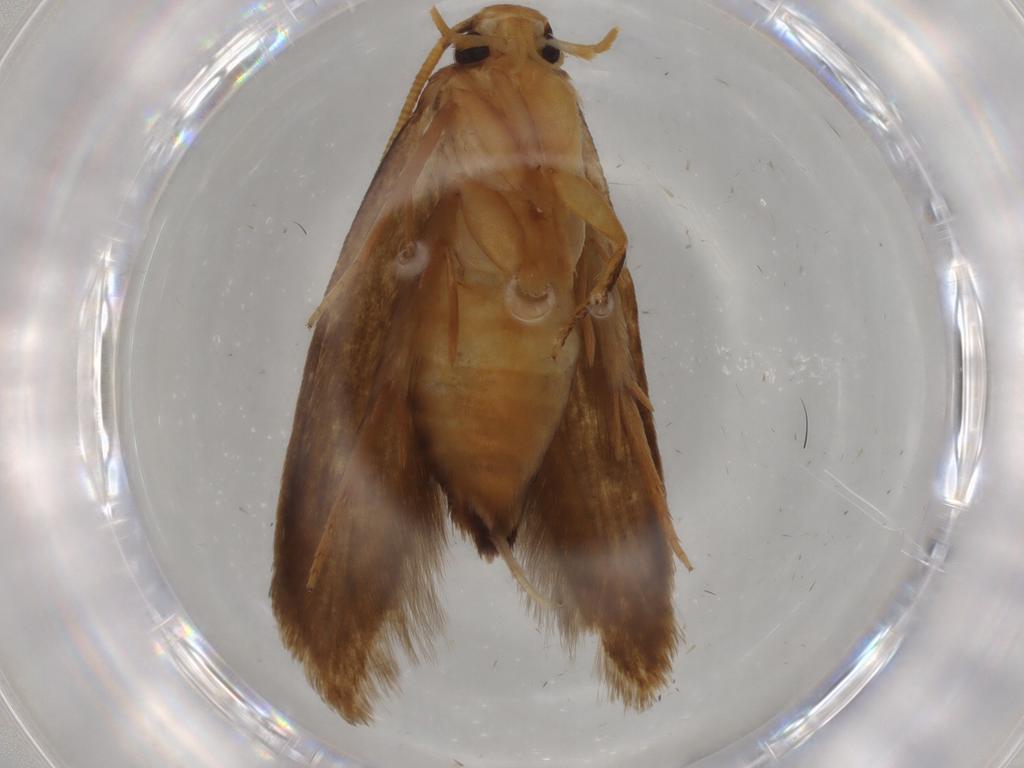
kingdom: Animalia
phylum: Arthropoda
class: Insecta
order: Lepidoptera
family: Tineidae
